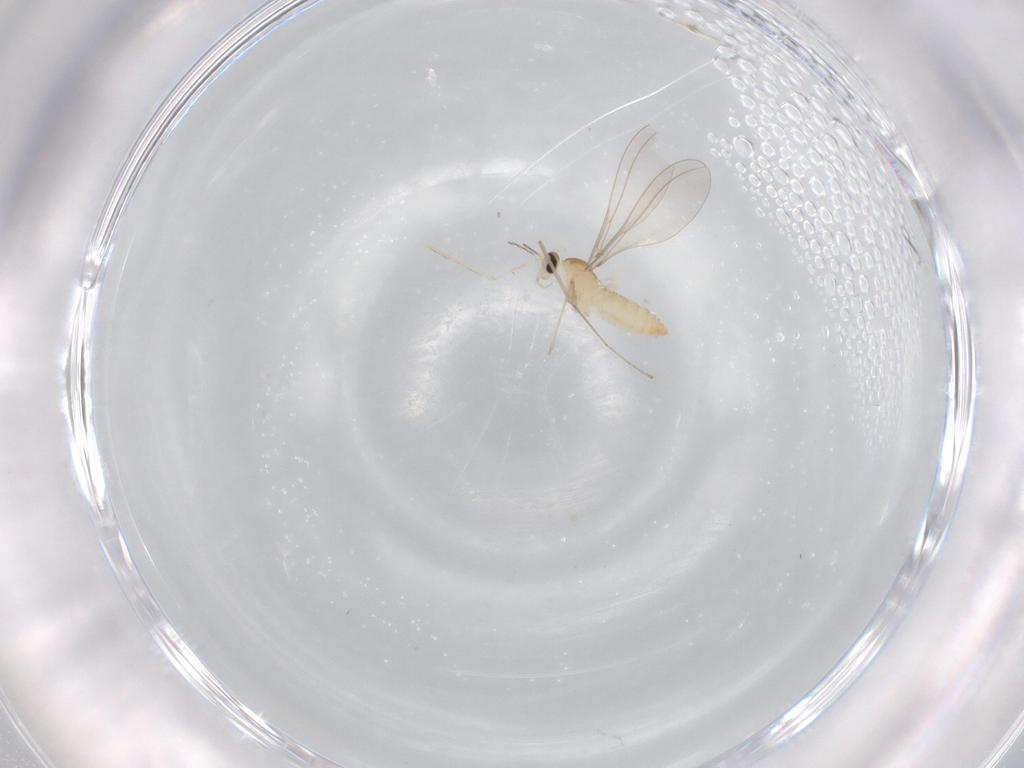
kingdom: Animalia
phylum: Arthropoda
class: Insecta
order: Diptera
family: Cecidomyiidae
